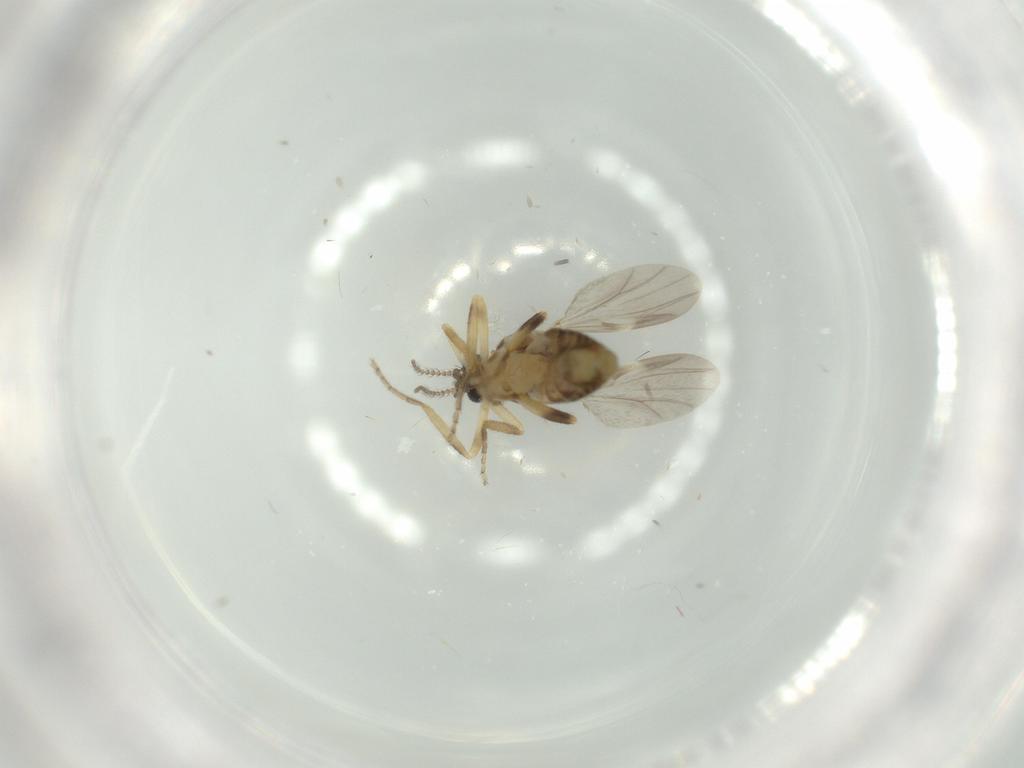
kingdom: Animalia
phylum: Arthropoda
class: Insecta
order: Diptera
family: Ceratopogonidae
